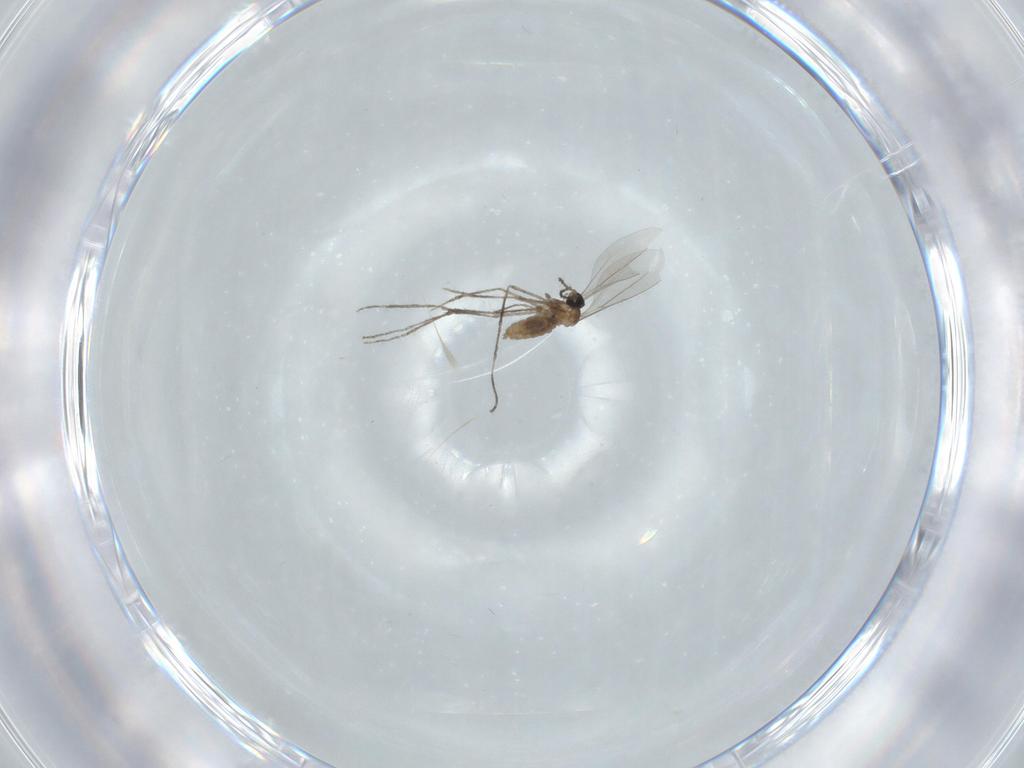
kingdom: Animalia
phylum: Arthropoda
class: Insecta
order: Diptera
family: Cecidomyiidae
